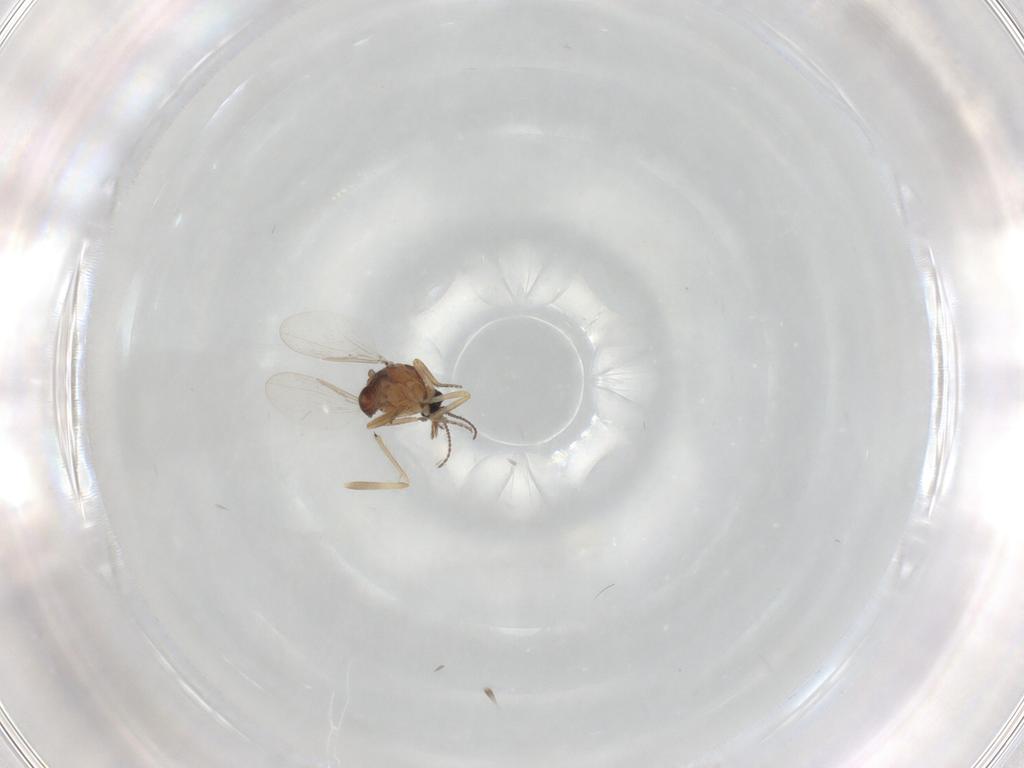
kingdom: Animalia
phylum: Arthropoda
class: Insecta
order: Diptera
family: Ceratopogonidae
